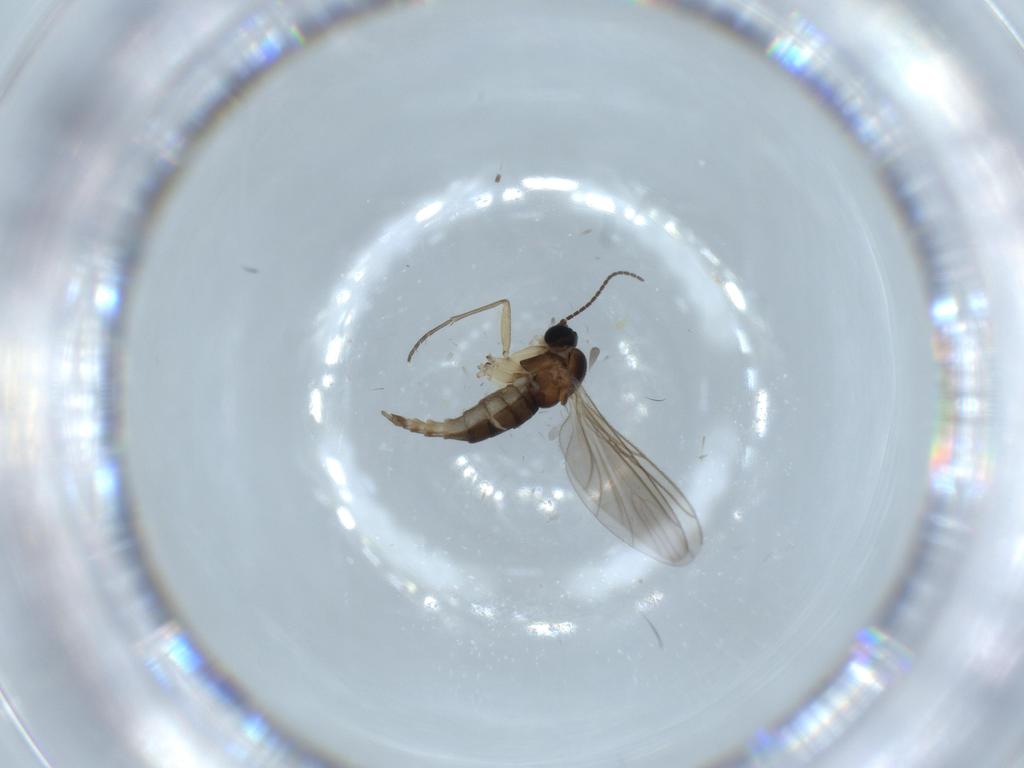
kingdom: Animalia
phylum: Arthropoda
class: Insecta
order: Diptera
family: Sciaridae
